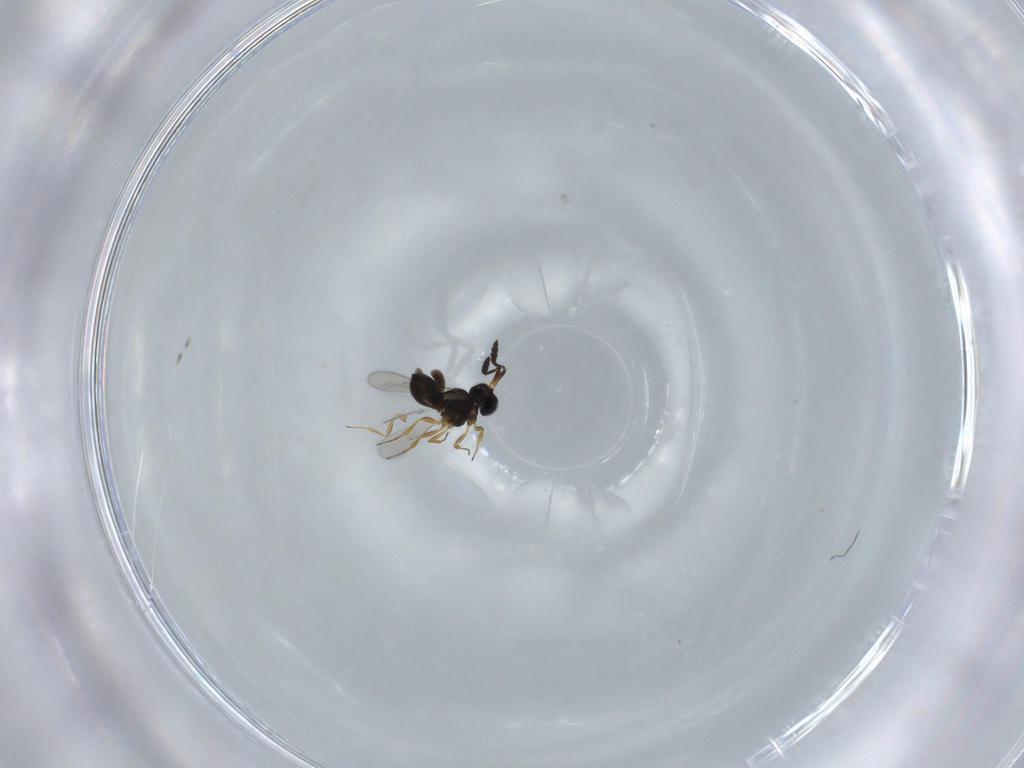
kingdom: Animalia
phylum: Arthropoda
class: Insecta
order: Hymenoptera
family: Scelionidae
